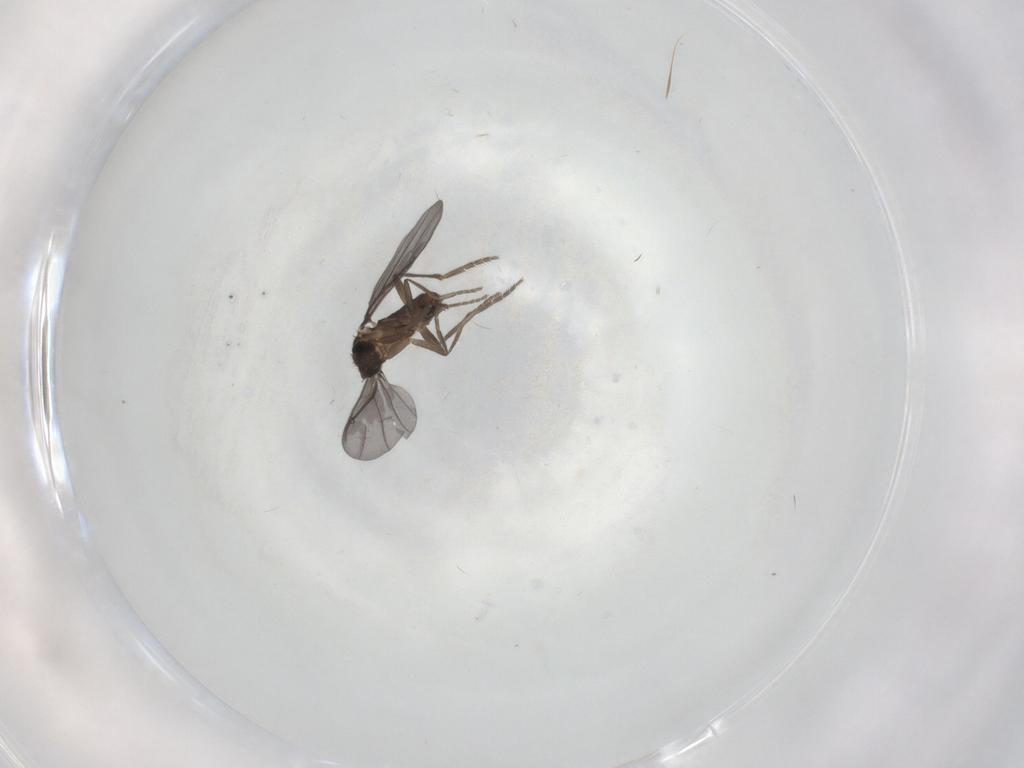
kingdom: Animalia
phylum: Arthropoda
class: Insecta
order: Diptera
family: Phoridae
